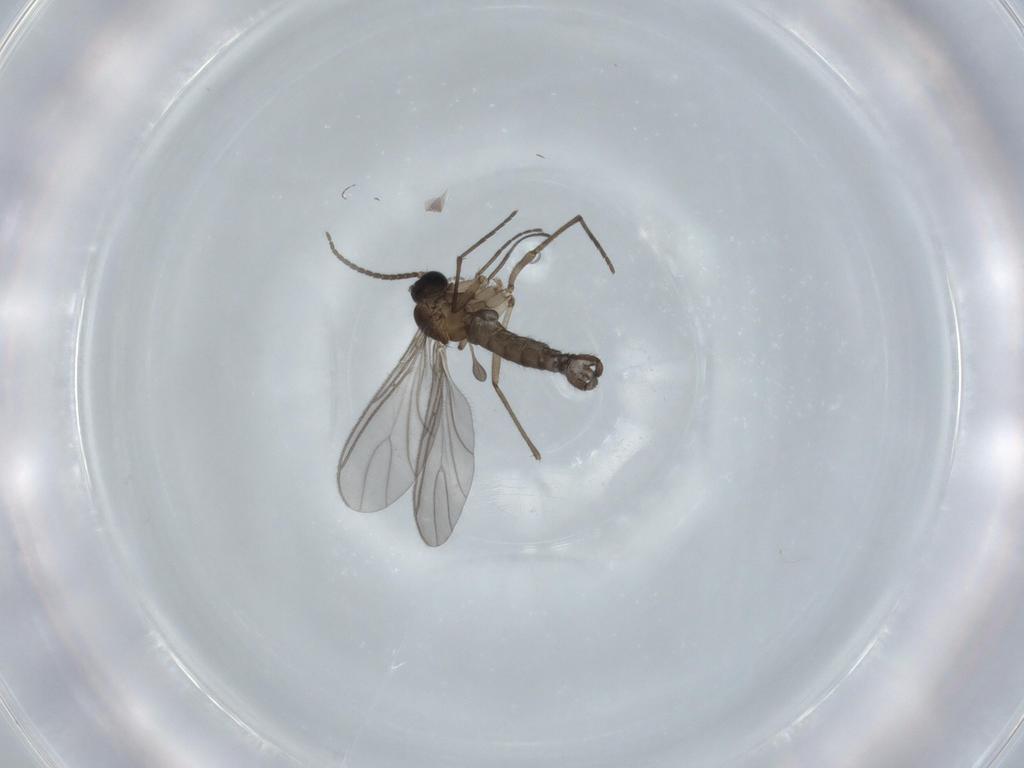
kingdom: Animalia
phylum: Arthropoda
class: Insecta
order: Diptera
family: Sciaridae
